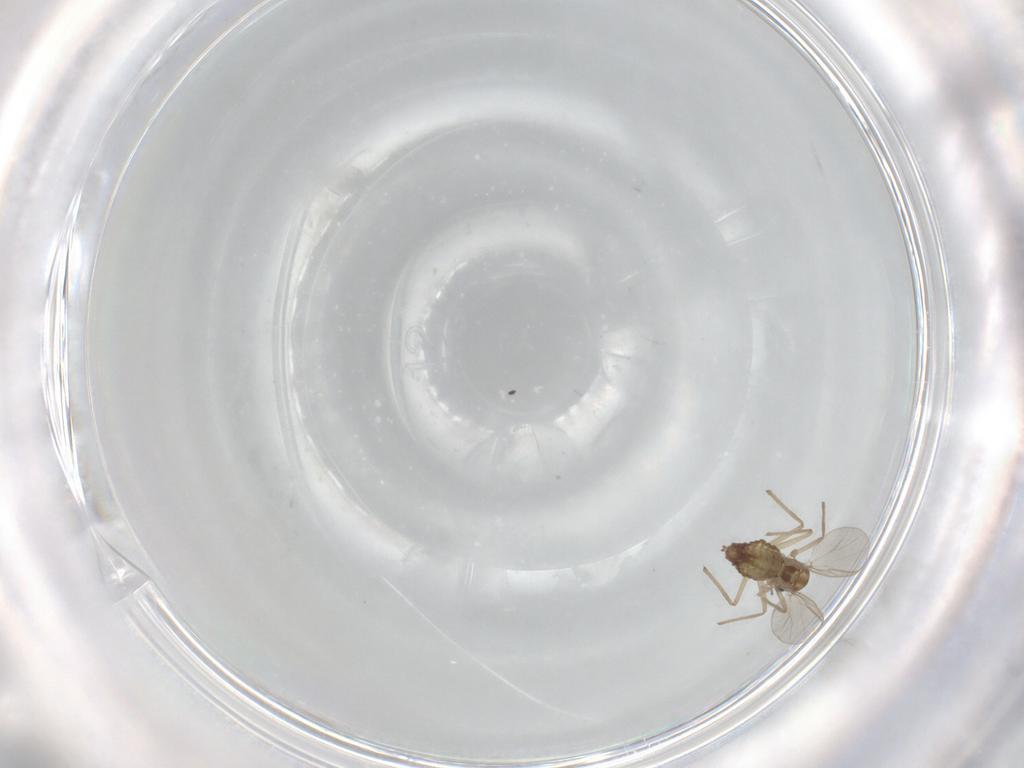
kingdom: Animalia
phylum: Arthropoda
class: Insecta
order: Diptera
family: Chironomidae
